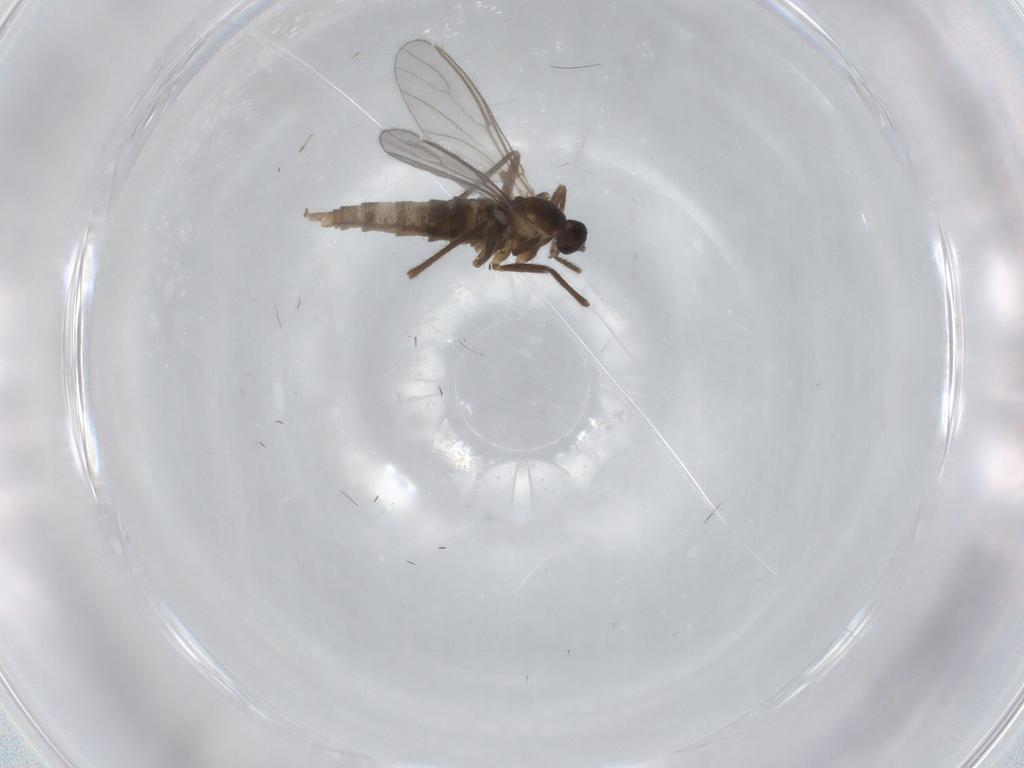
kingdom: Animalia
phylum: Arthropoda
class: Insecta
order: Diptera
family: Cecidomyiidae
